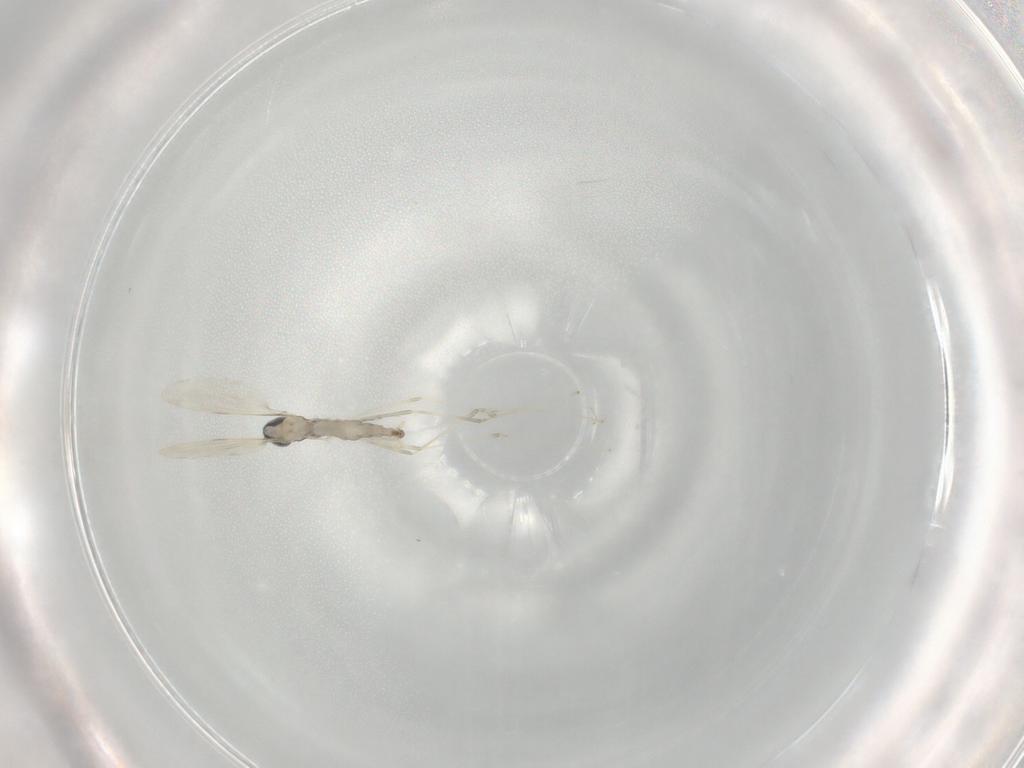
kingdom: Animalia
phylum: Arthropoda
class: Insecta
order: Diptera
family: Cecidomyiidae
